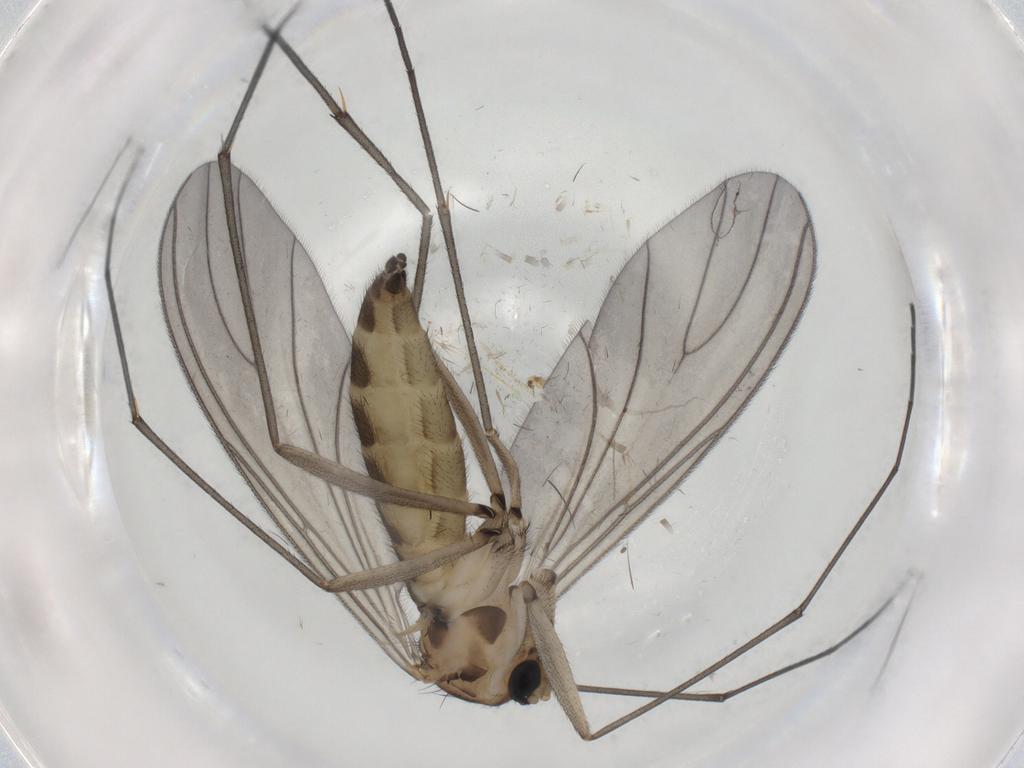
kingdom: Animalia
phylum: Arthropoda
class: Insecta
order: Diptera
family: Sciaridae
